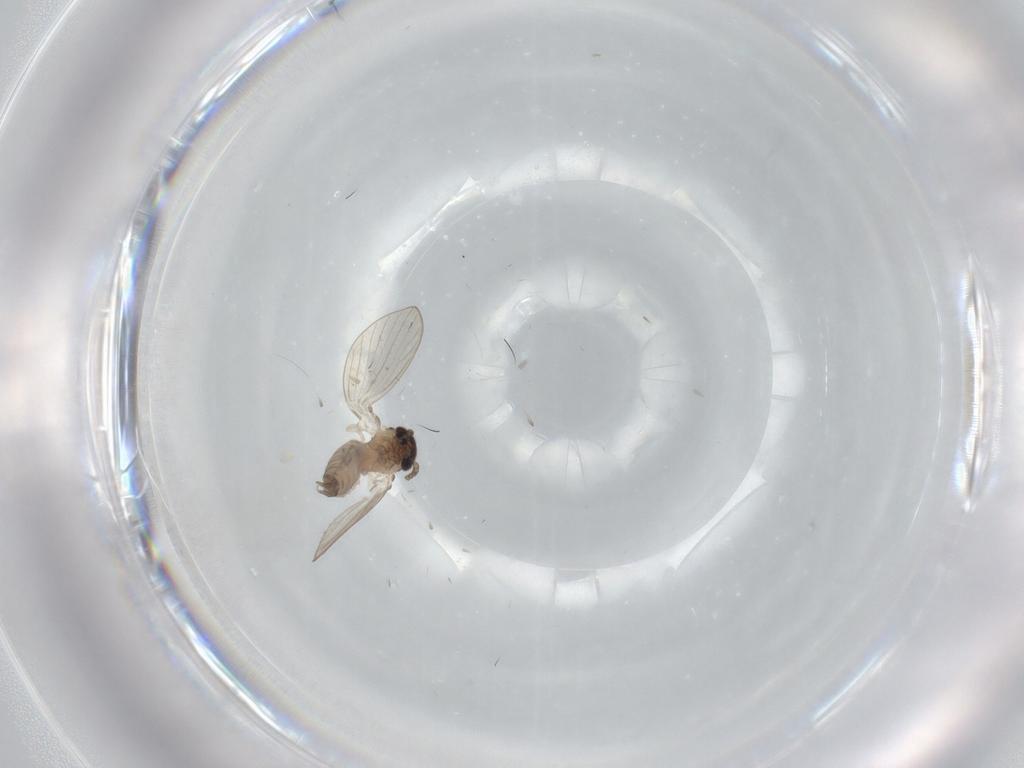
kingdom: Animalia
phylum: Arthropoda
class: Insecta
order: Diptera
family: Psychodidae
